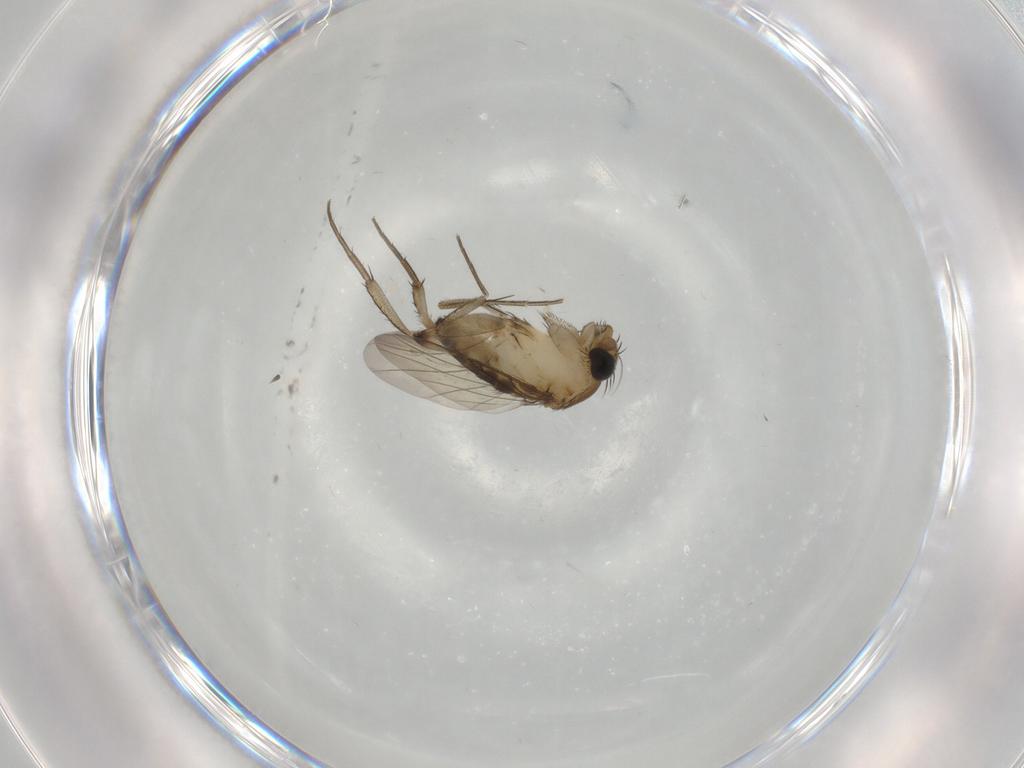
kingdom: Animalia
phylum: Arthropoda
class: Insecta
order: Diptera
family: Phoridae
